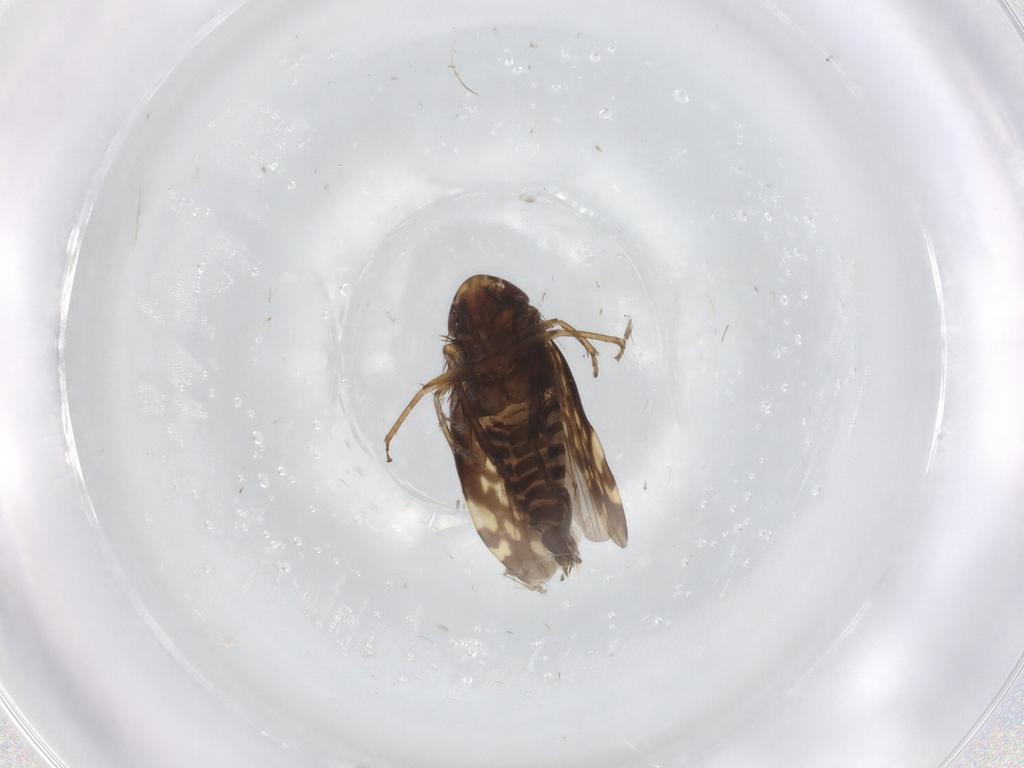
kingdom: Animalia
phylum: Arthropoda
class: Insecta
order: Hemiptera
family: Cicadellidae
